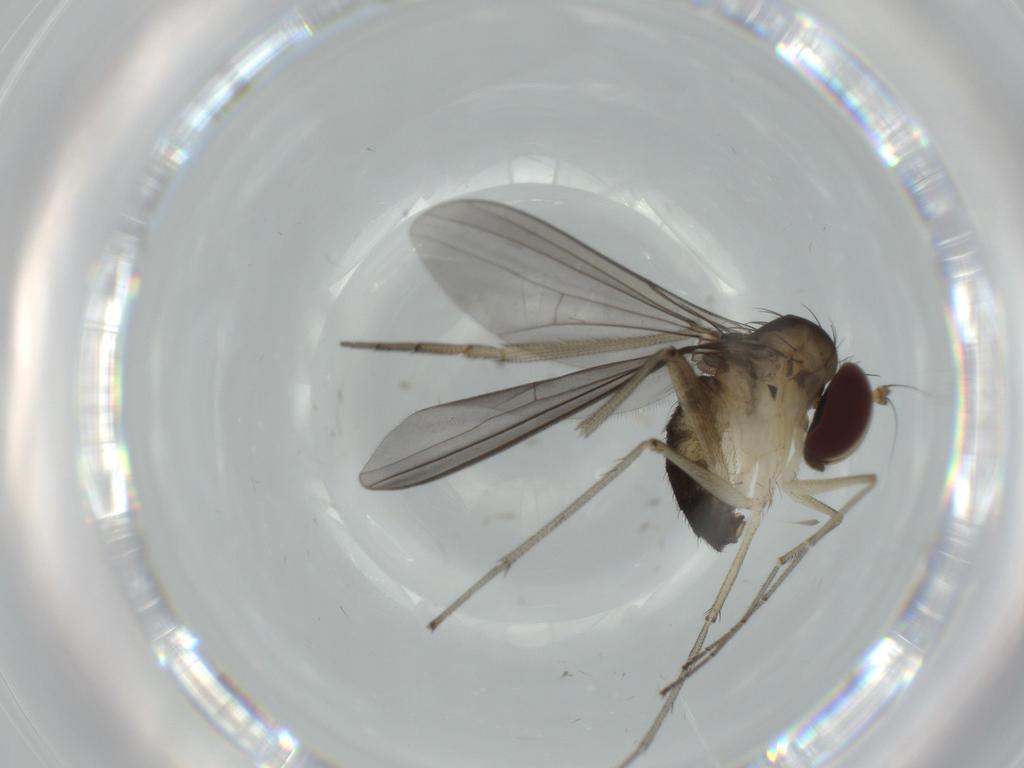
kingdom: Animalia
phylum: Arthropoda
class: Insecta
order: Diptera
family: Dolichopodidae
